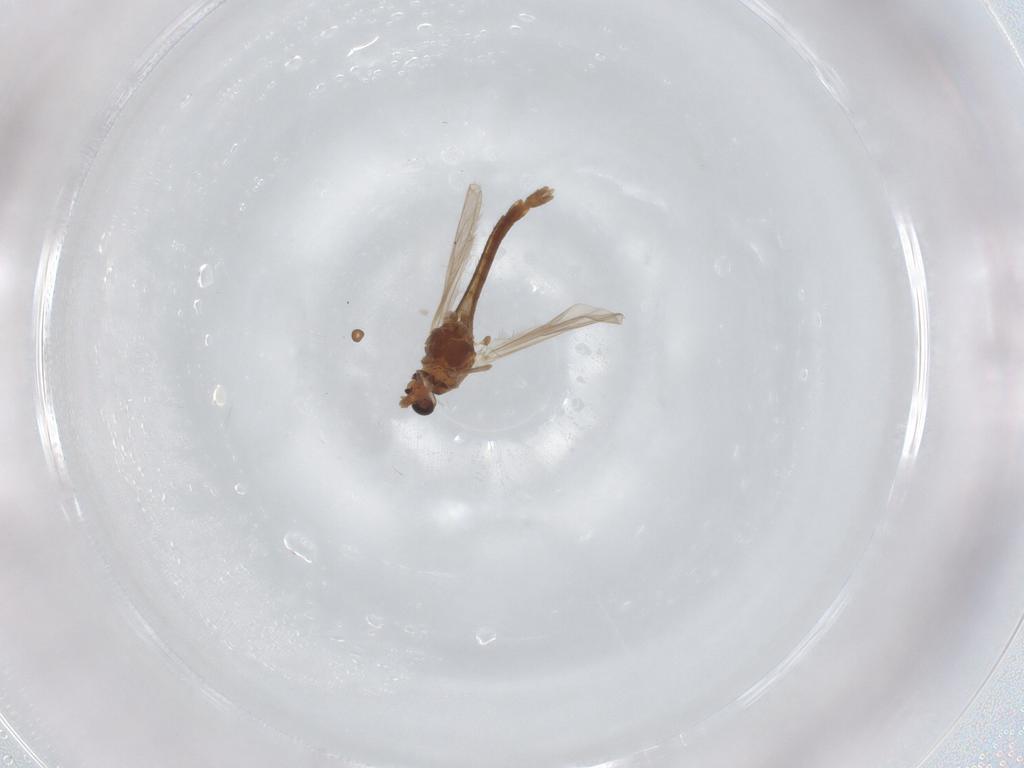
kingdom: Animalia
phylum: Arthropoda
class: Insecta
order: Diptera
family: Chironomidae
